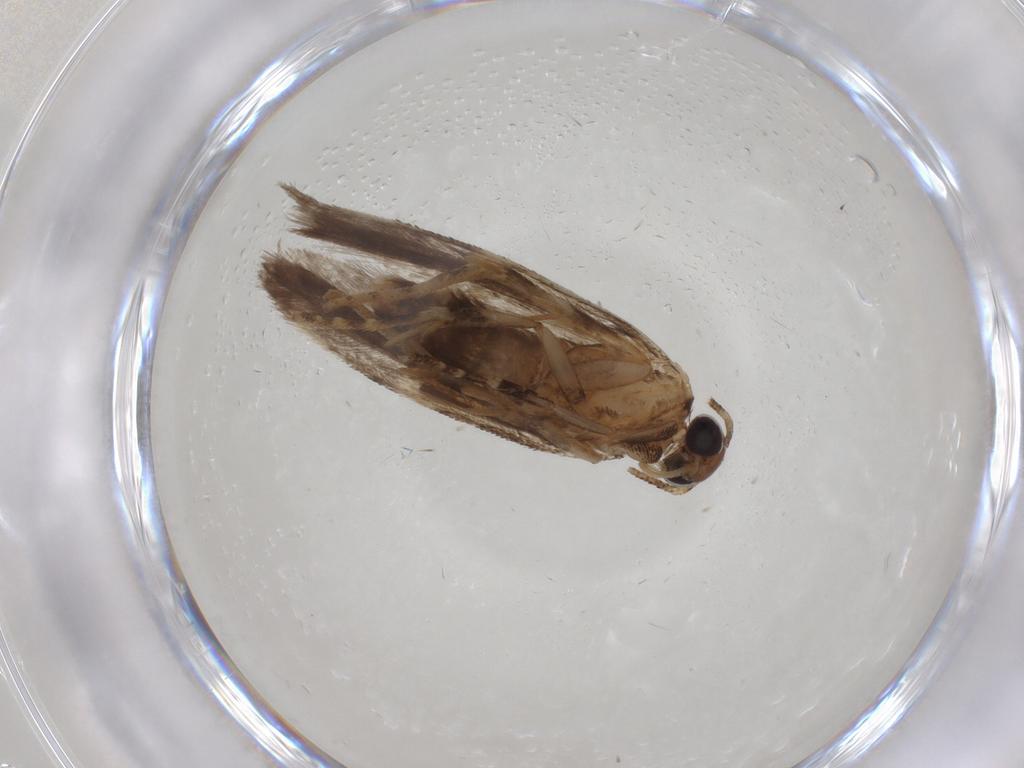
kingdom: Animalia
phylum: Arthropoda
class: Insecta
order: Lepidoptera
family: Gelechiidae
